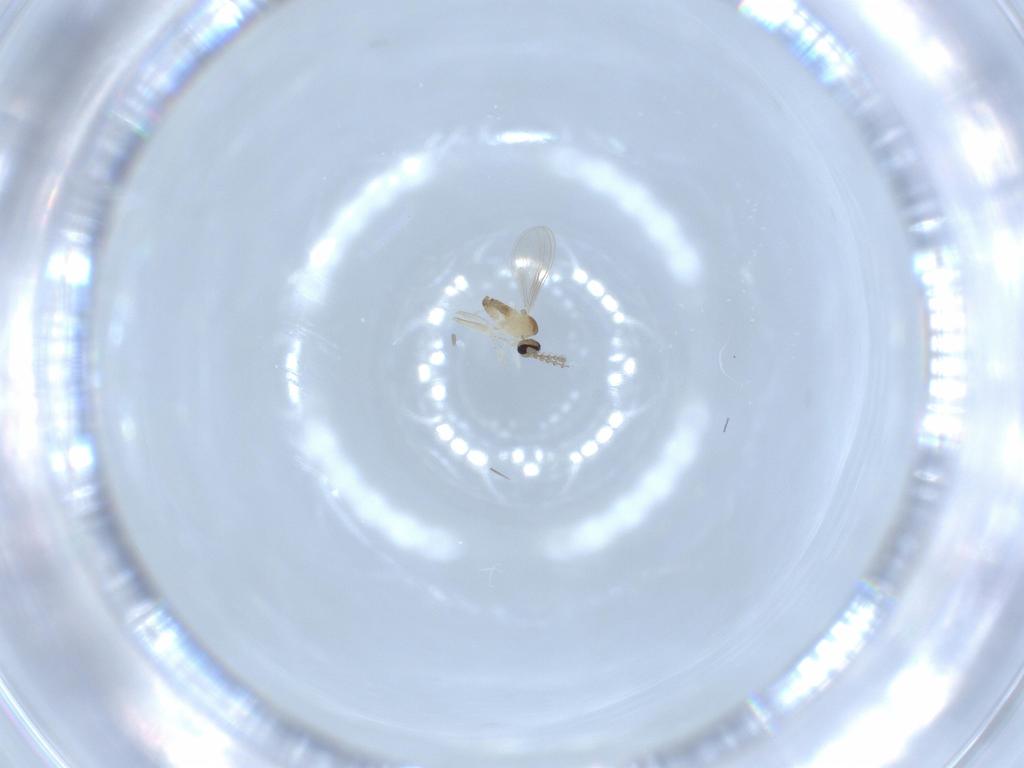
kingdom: Animalia
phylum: Arthropoda
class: Insecta
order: Diptera
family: Cecidomyiidae
